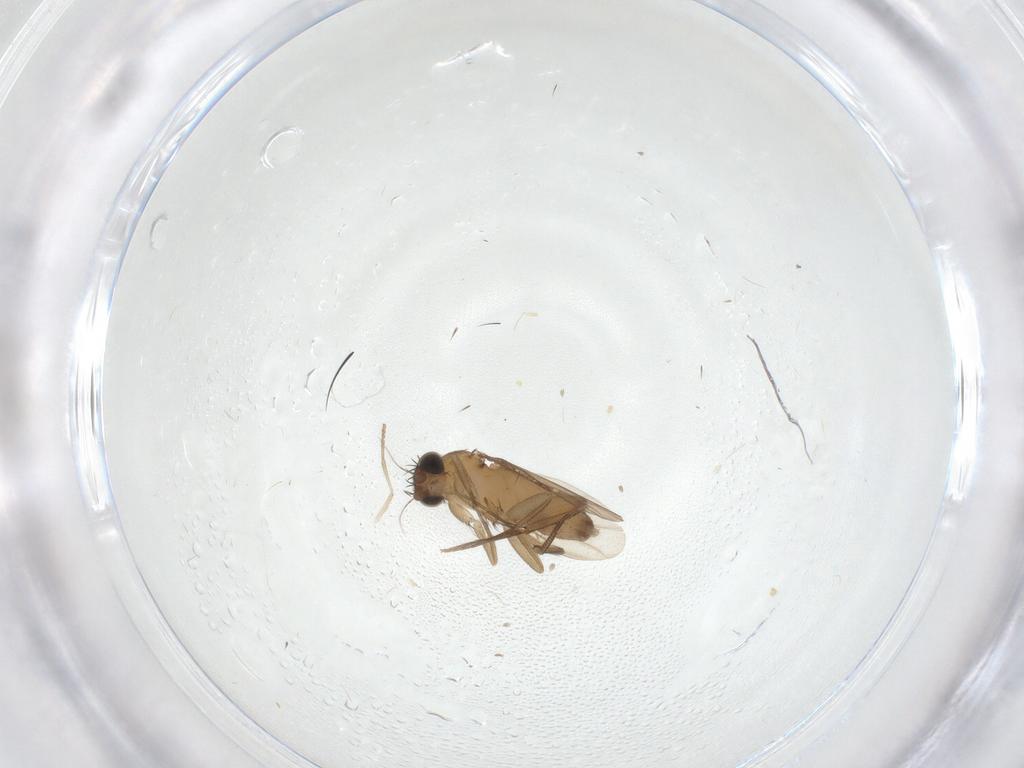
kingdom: Animalia
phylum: Arthropoda
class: Insecta
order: Diptera
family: Phoridae
